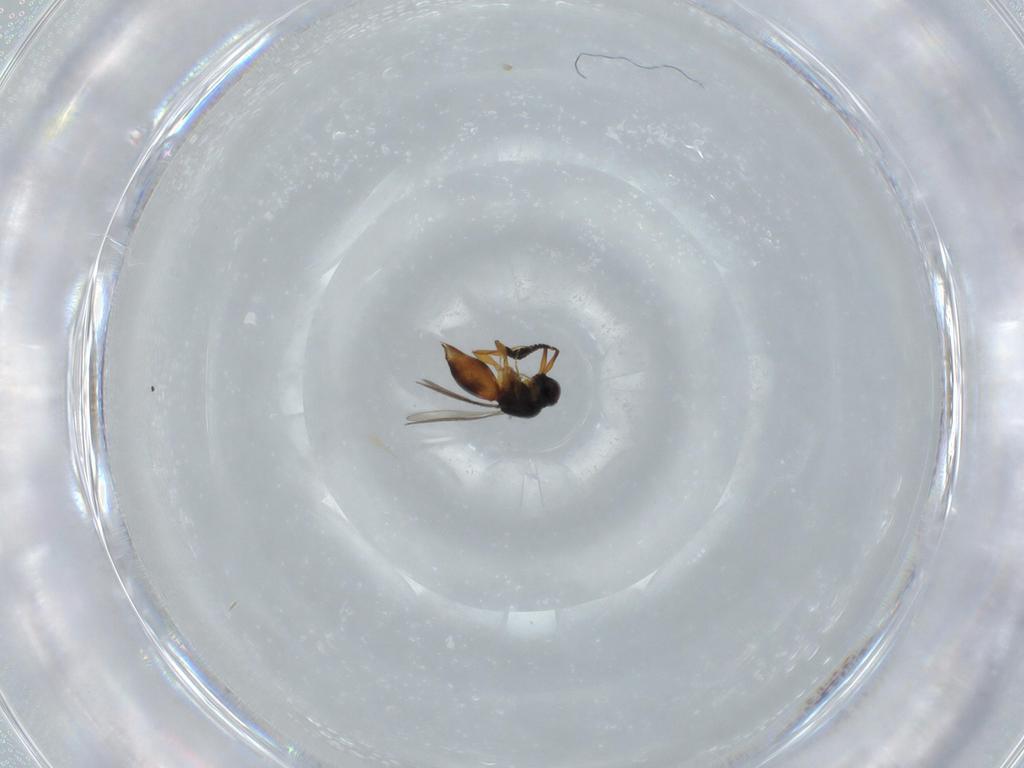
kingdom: Animalia
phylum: Arthropoda
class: Insecta
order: Hymenoptera
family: Ceraphronidae
